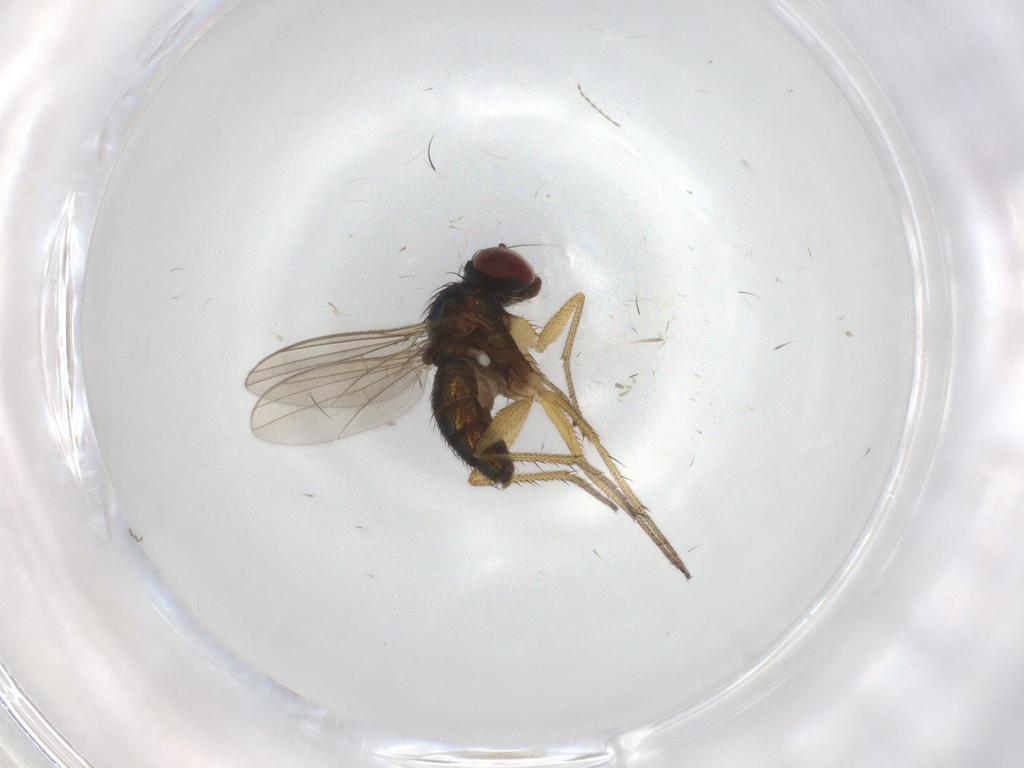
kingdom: Animalia
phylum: Arthropoda
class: Insecta
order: Diptera
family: Dolichopodidae
